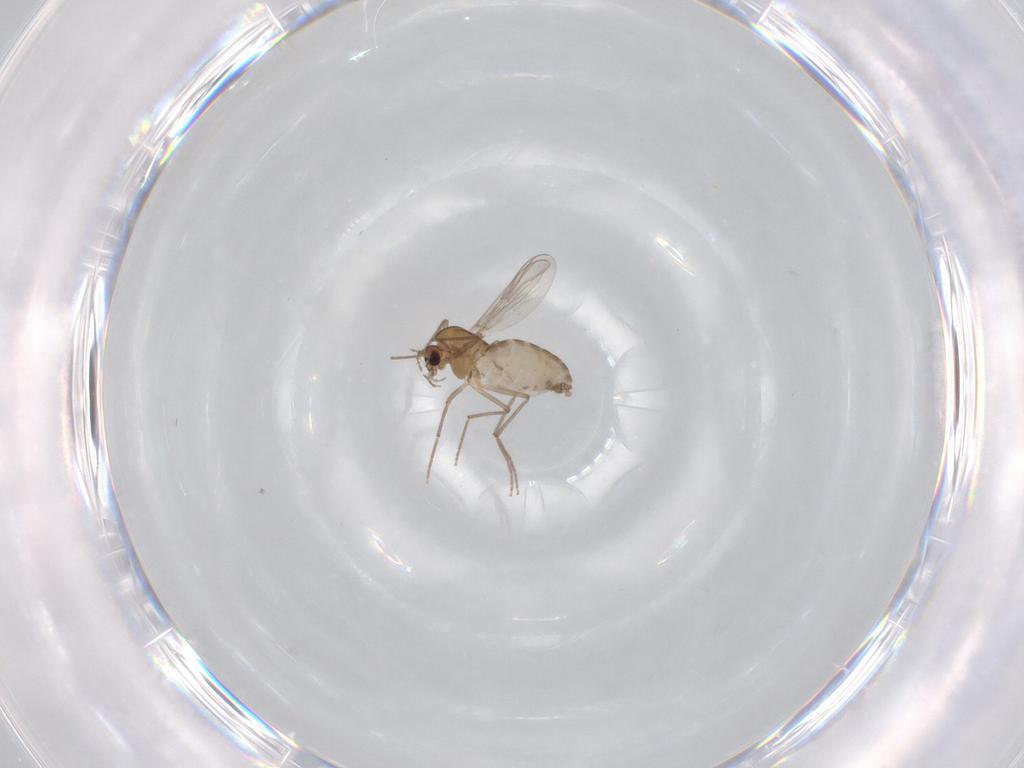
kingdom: Animalia
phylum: Arthropoda
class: Insecta
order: Diptera
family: Chironomidae
